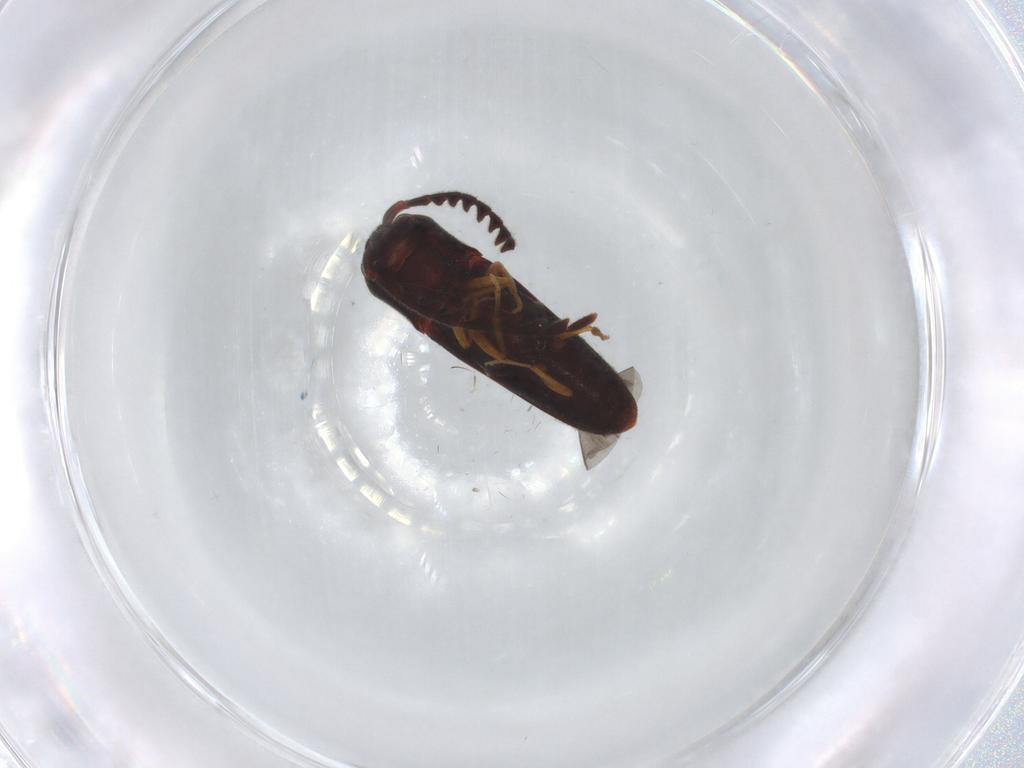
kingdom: Animalia
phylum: Arthropoda
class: Insecta
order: Coleoptera
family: Eucnemidae
